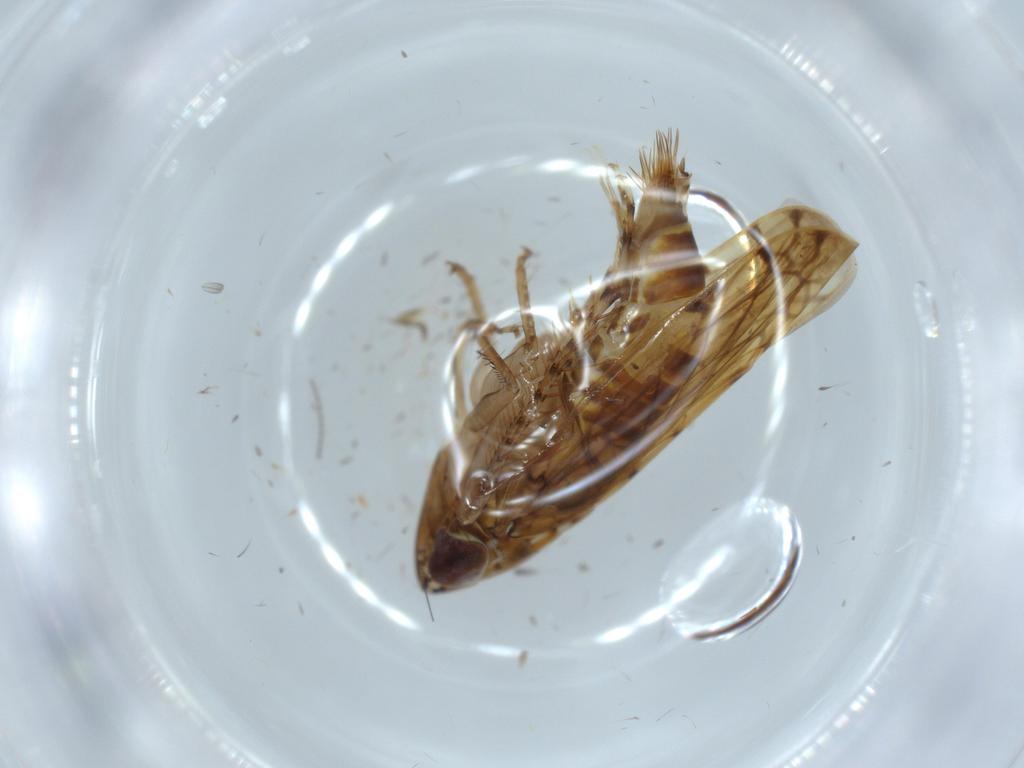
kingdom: Animalia
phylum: Arthropoda
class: Insecta
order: Hemiptera
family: Cicadellidae
